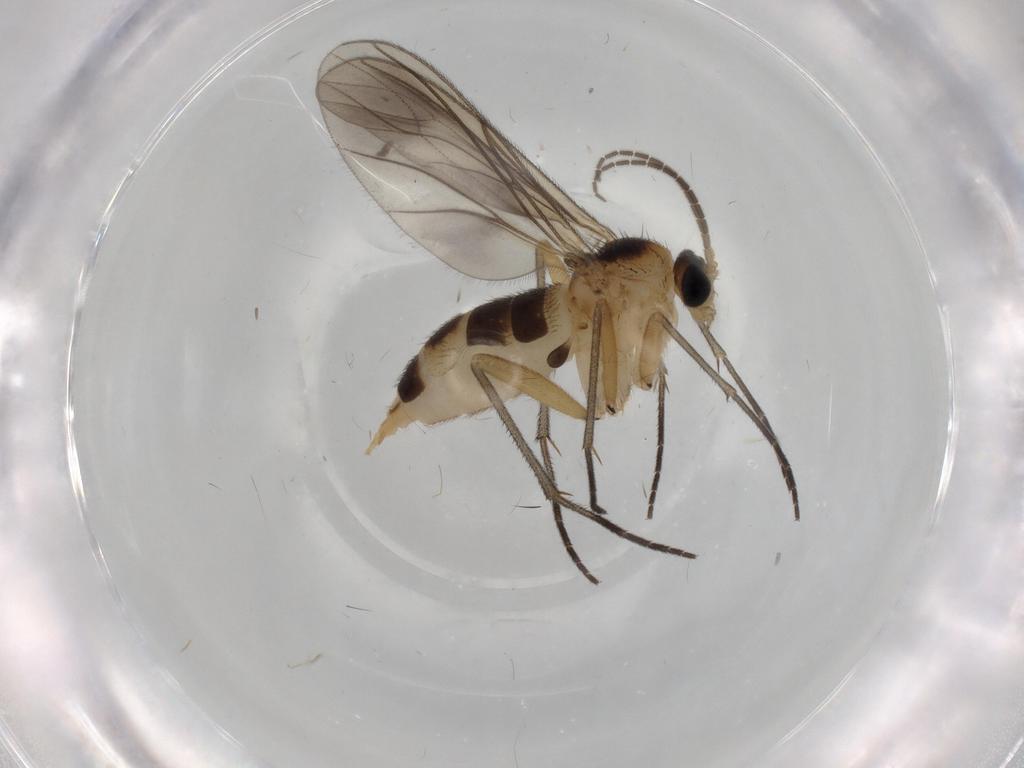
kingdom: Animalia
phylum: Arthropoda
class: Insecta
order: Diptera
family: Sciaridae
